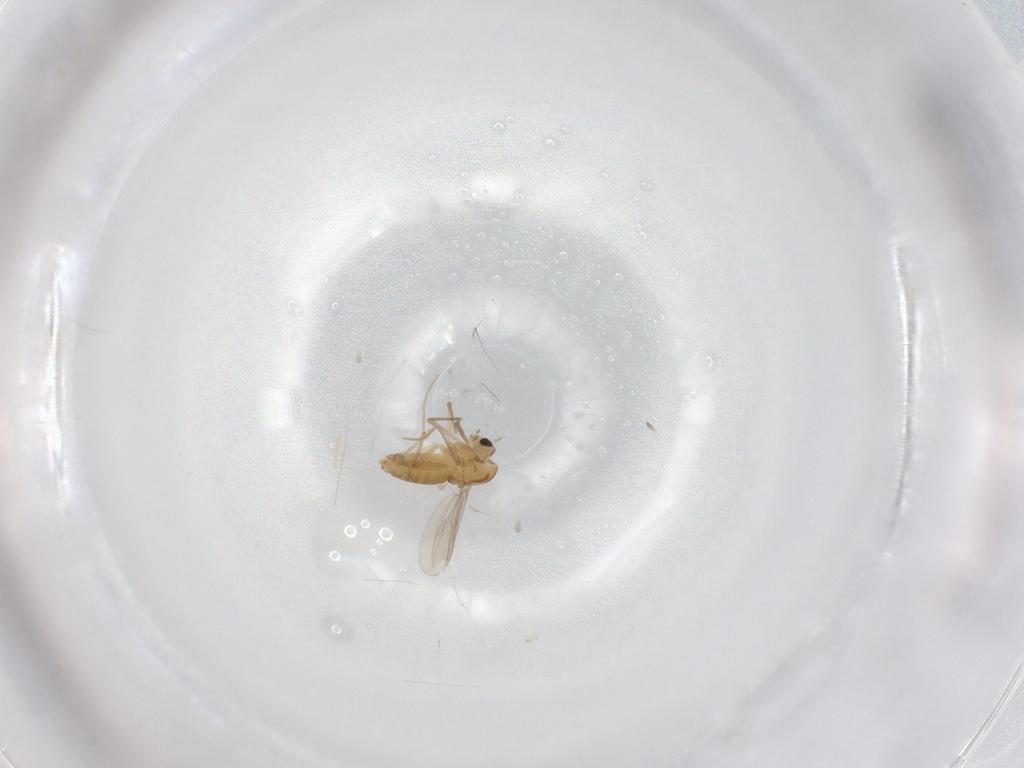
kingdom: Animalia
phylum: Arthropoda
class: Insecta
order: Diptera
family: Chironomidae
